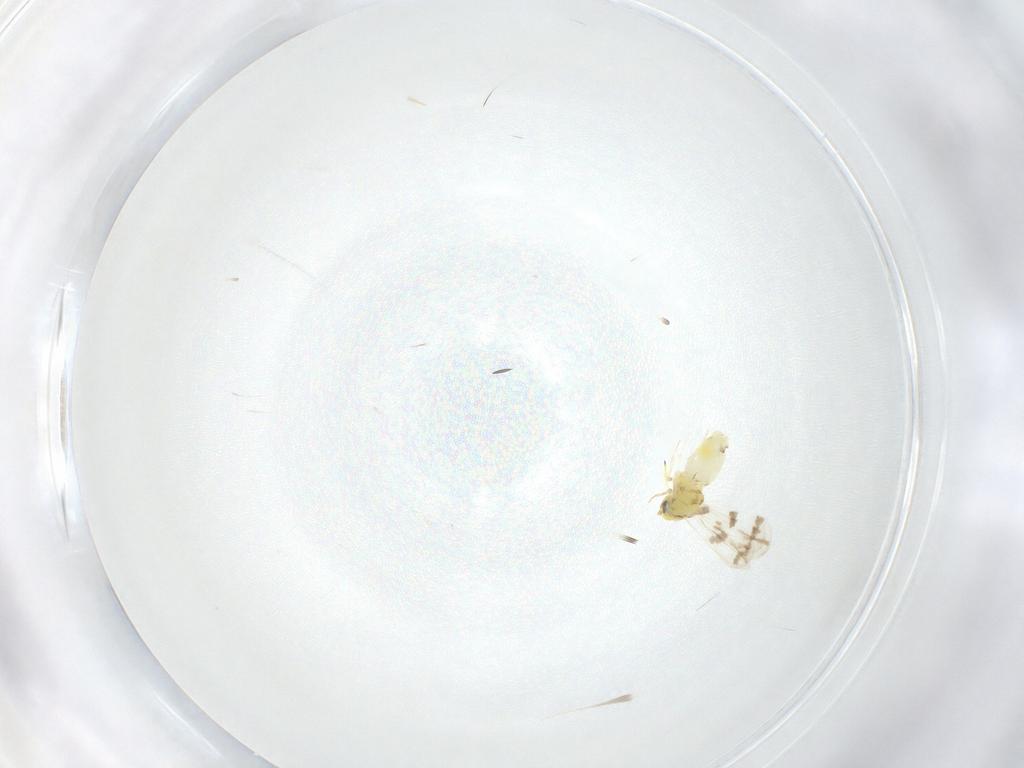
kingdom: Animalia
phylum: Arthropoda
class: Insecta
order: Hemiptera
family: Aleyrodidae
